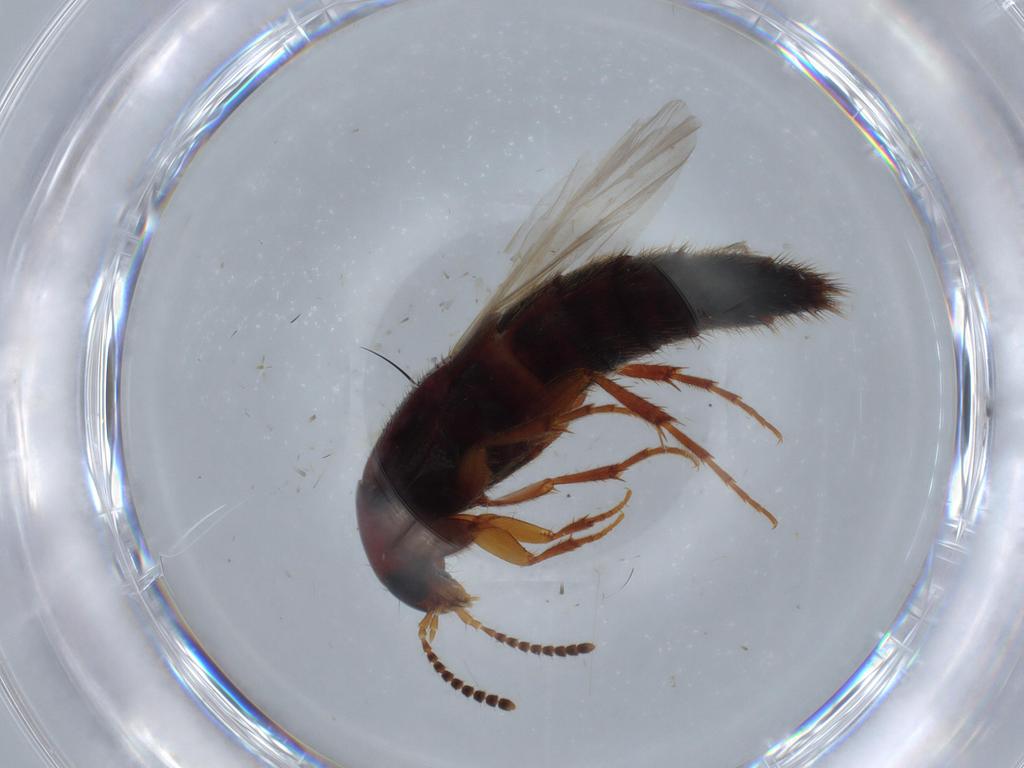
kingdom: Animalia
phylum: Arthropoda
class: Insecta
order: Coleoptera
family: Staphylinidae
